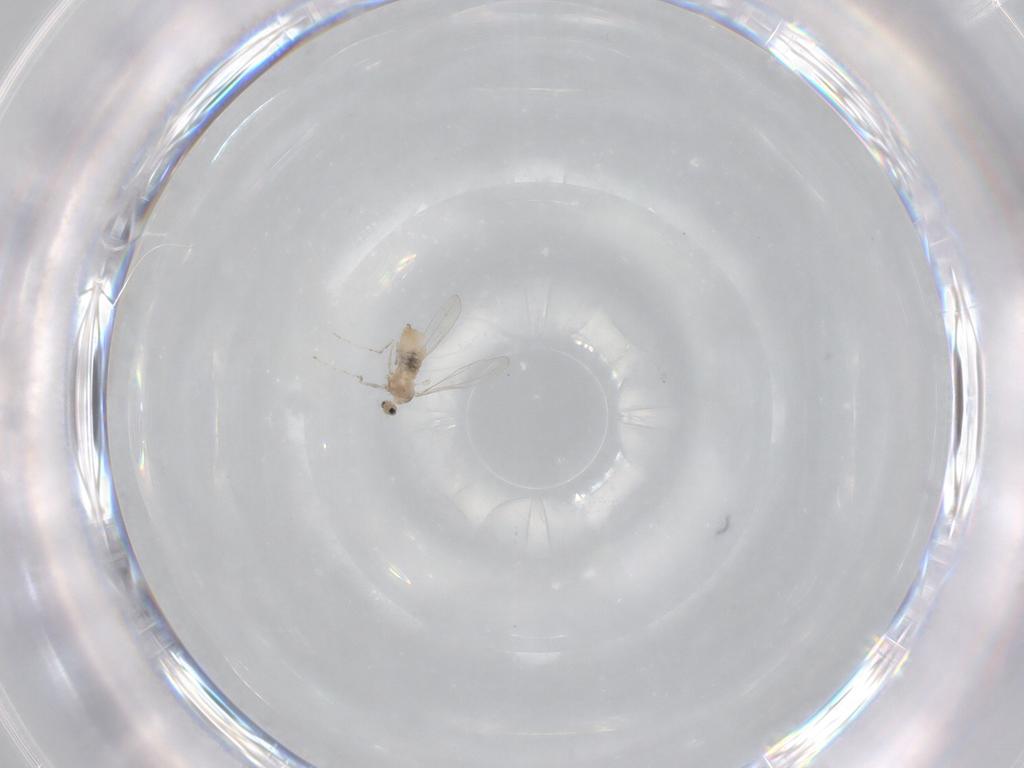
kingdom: Animalia
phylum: Arthropoda
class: Insecta
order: Diptera
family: Cecidomyiidae
